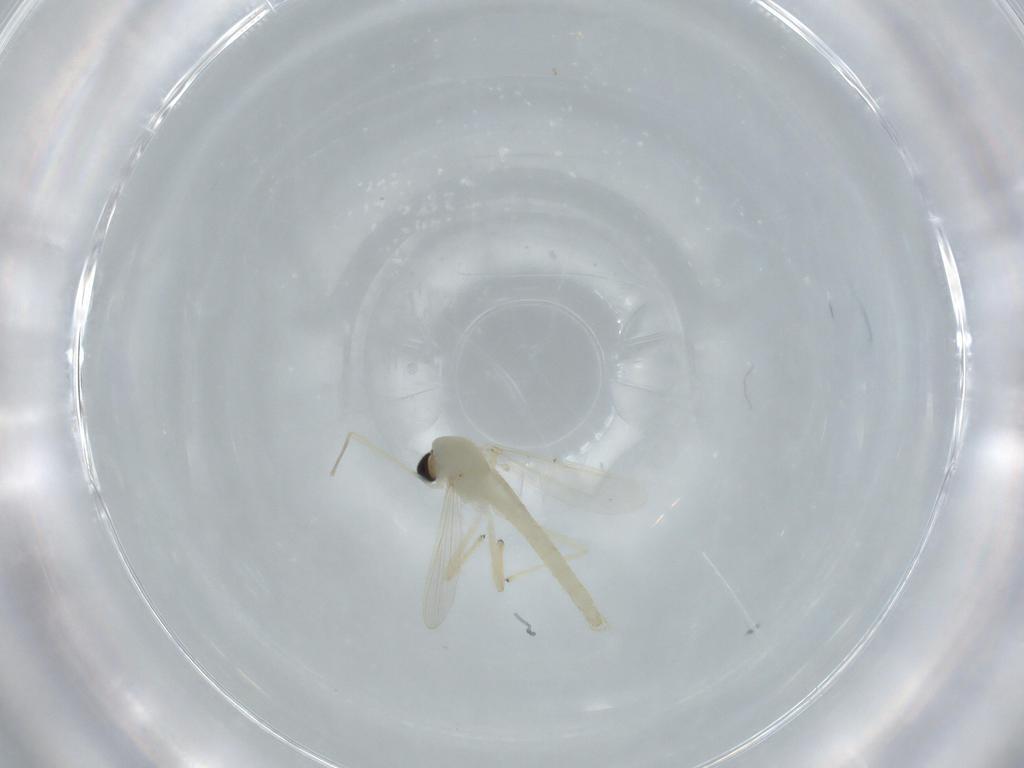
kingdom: Animalia
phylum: Arthropoda
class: Insecta
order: Diptera
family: Chironomidae
